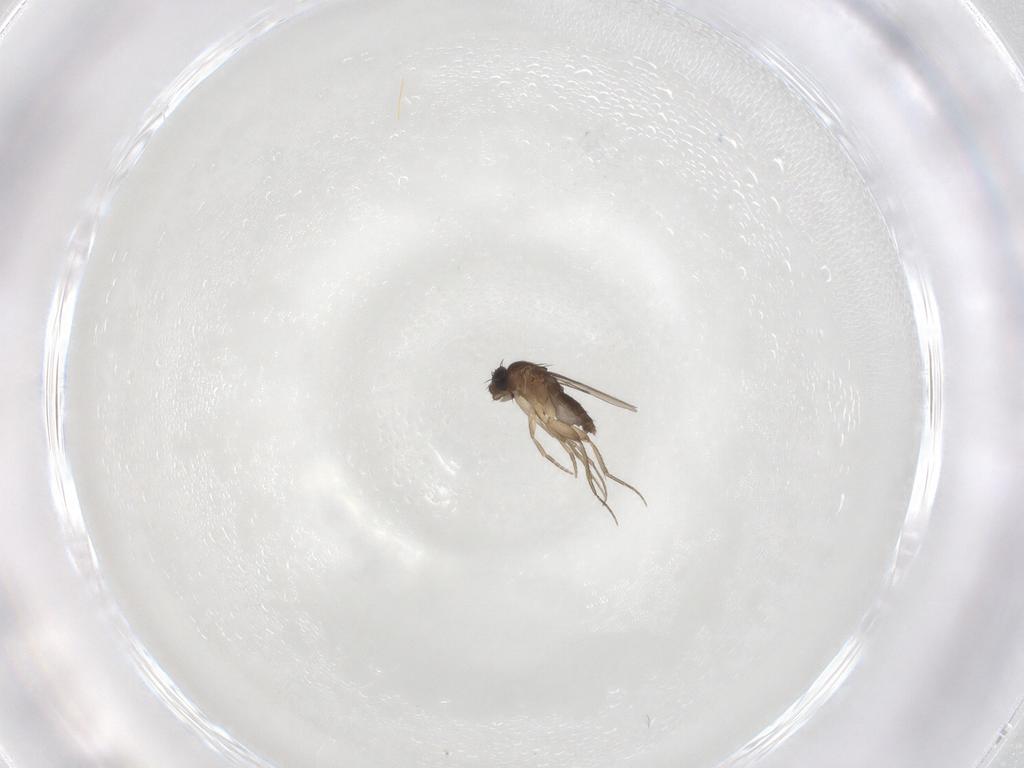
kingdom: Animalia
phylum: Arthropoda
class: Insecta
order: Diptera
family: Phoridae
